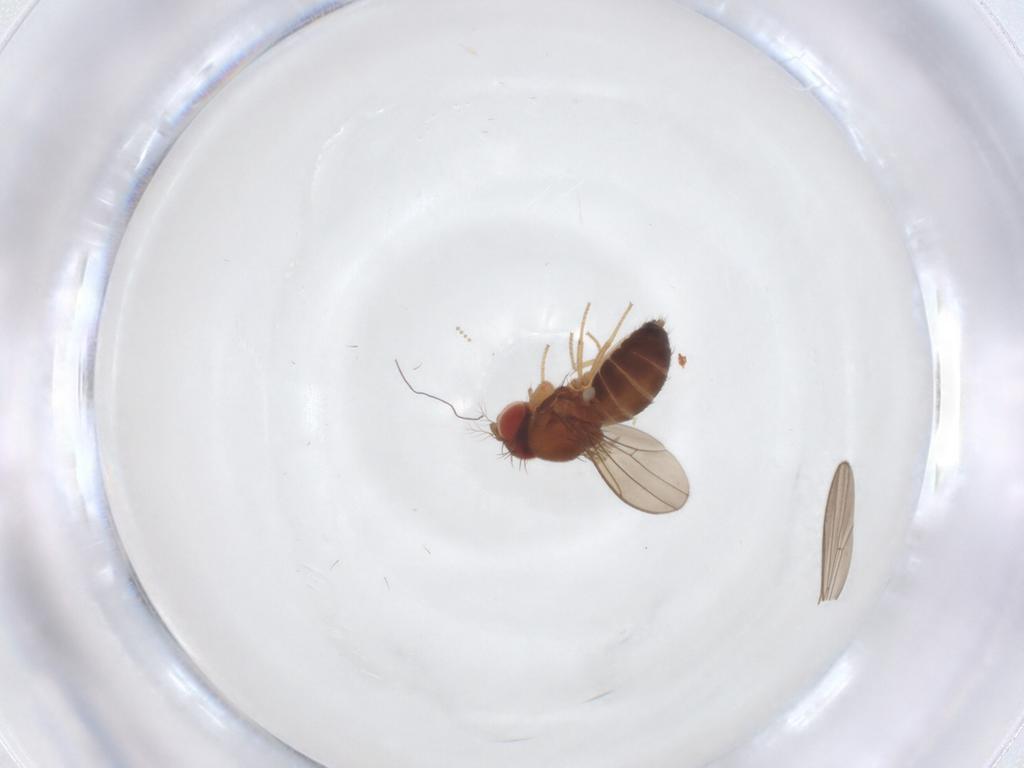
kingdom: Animalia
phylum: Arthropoda
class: Insecta
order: Diptera
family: Drosophilidae
